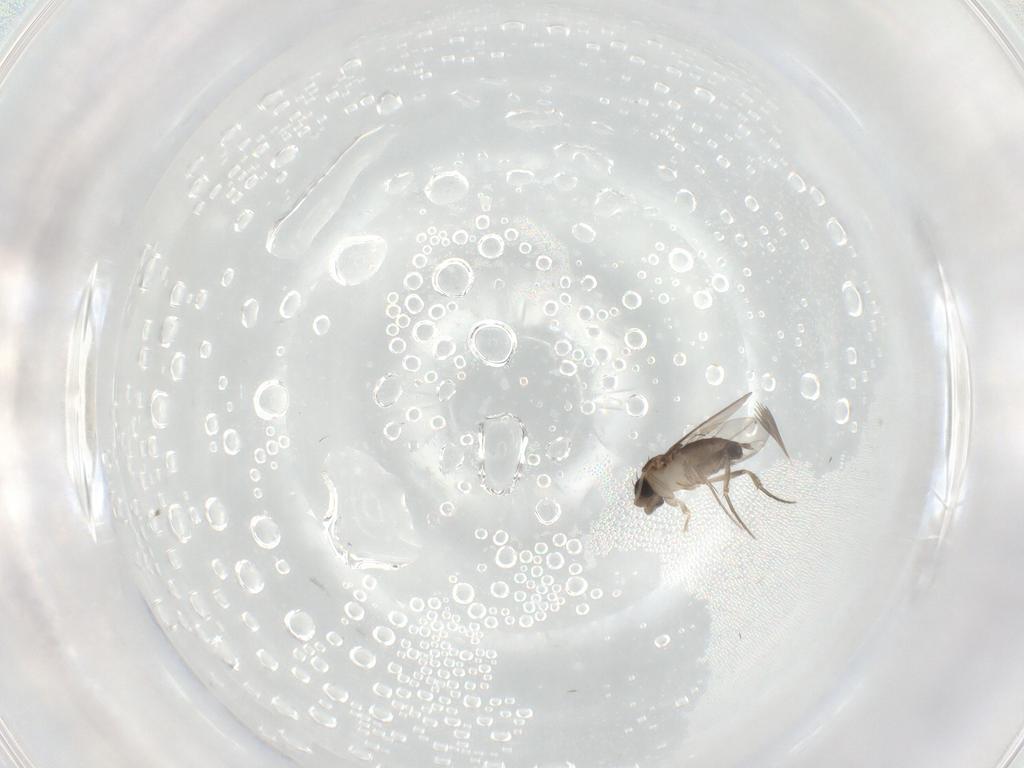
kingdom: Animalia
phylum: Arthropoda
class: Insecta
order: Diptera
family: Phoridae
